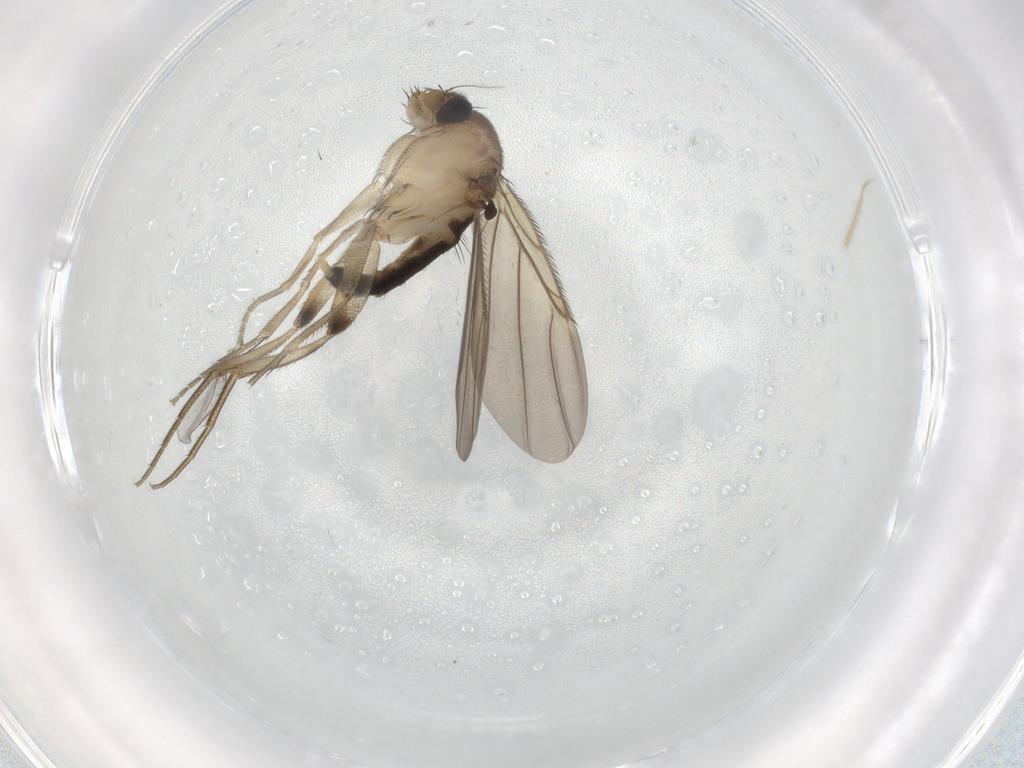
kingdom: Animalia
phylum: Arthropoda
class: Insecta
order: Diptera
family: Phoridae
